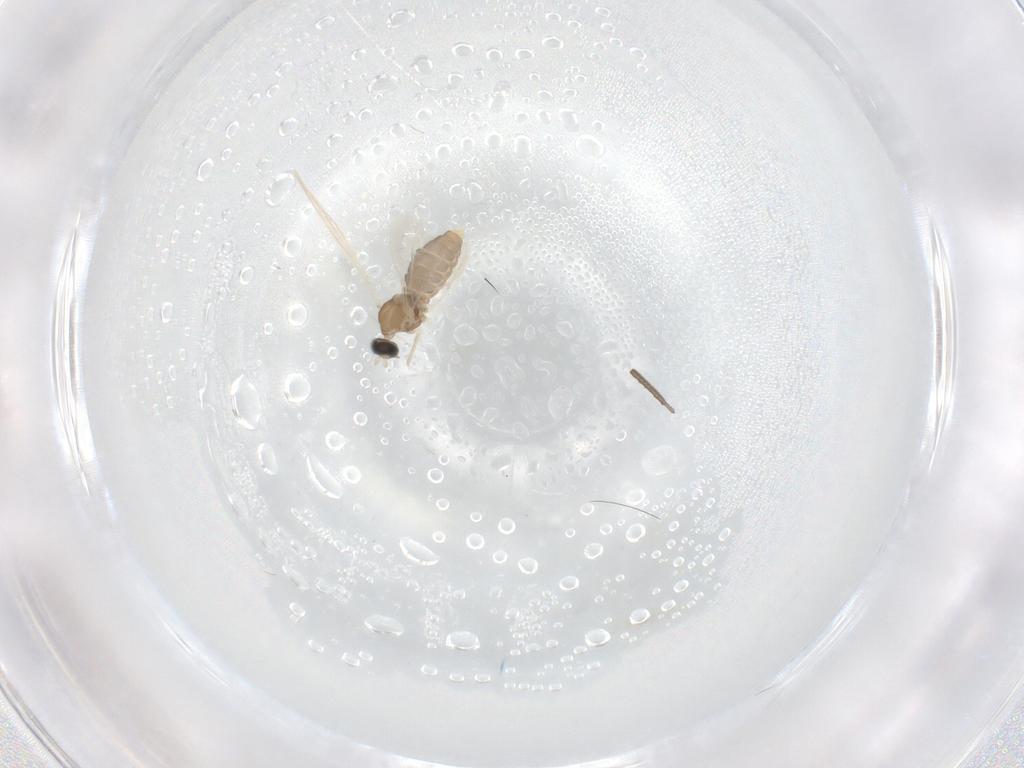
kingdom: Animalia
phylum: Arthropoda
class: Insecta
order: Diptera
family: Cecidomyiidae
